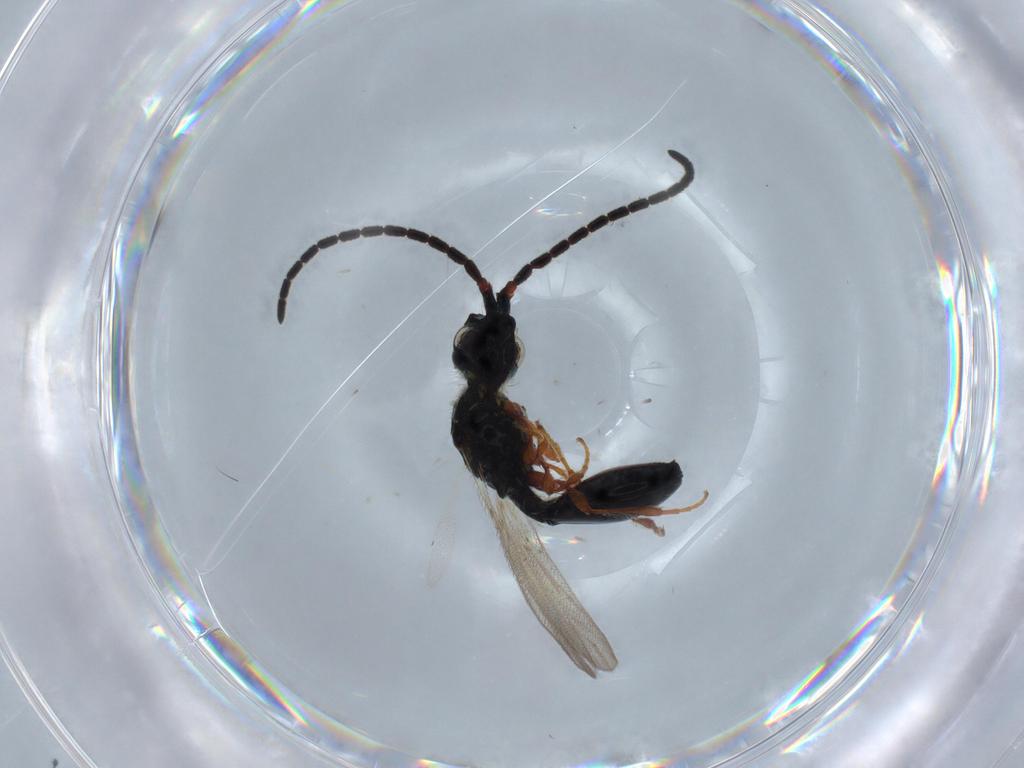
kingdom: Animalia
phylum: Arthropoda
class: Insecta
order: Hymenoptera
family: Diapriidae
